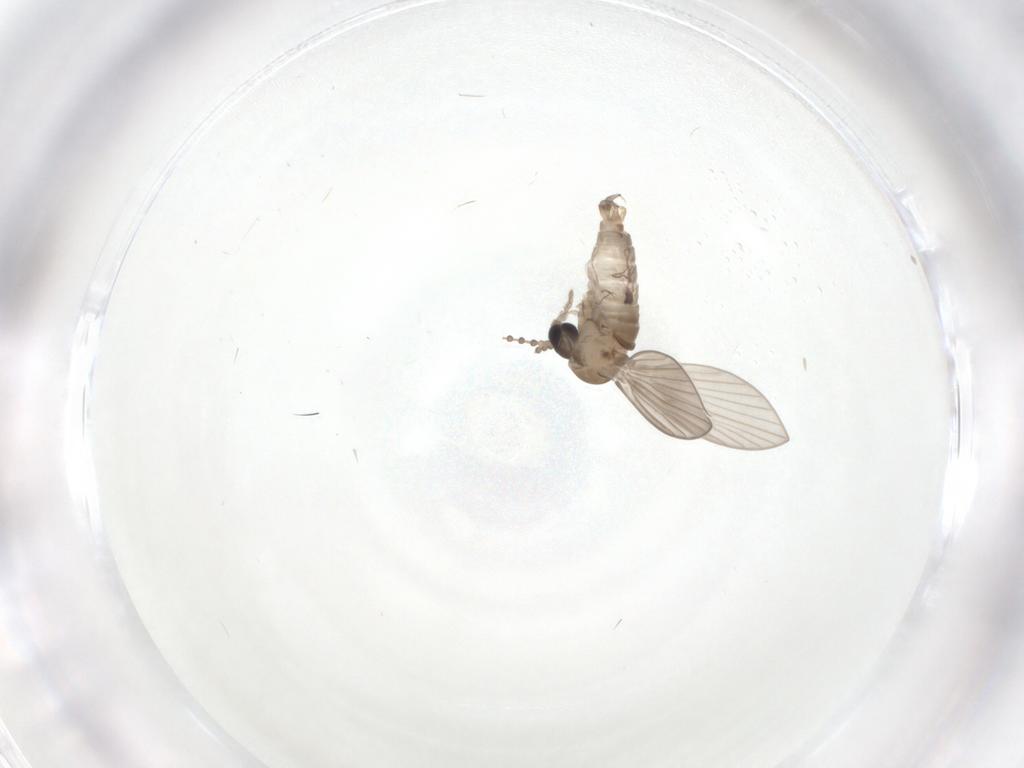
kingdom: Animalia
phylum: Arthropoda
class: Insecta
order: Diptera
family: Psychodidae
